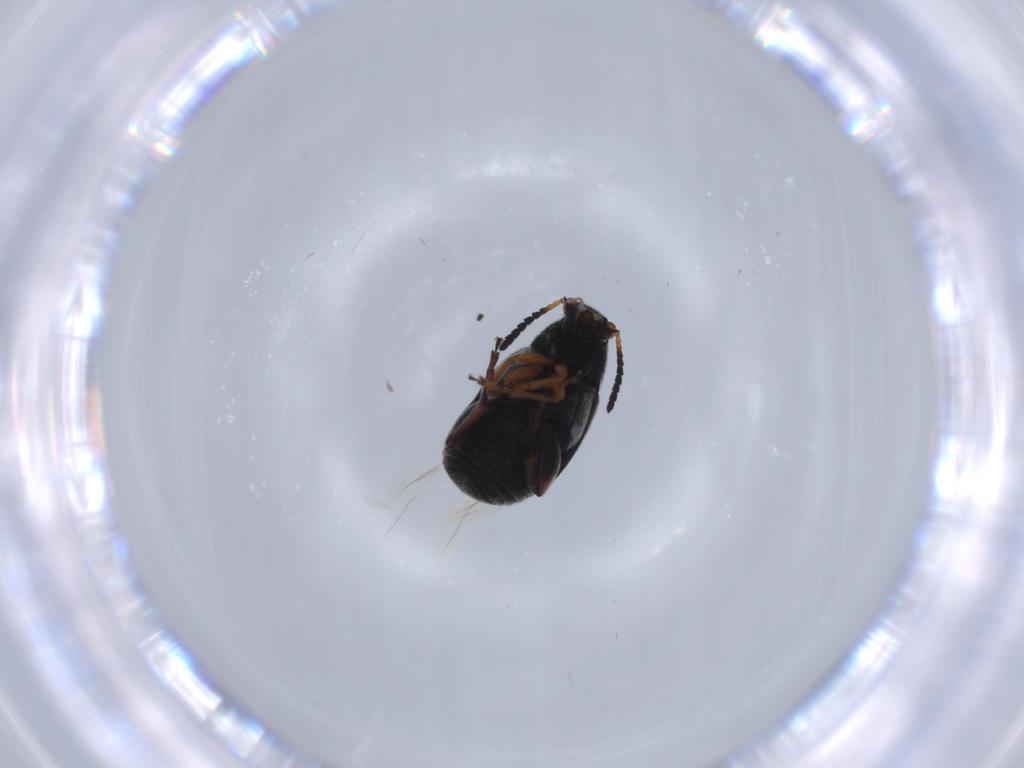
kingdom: Animalia
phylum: Arthropoda
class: Insecta
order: Coleoptera
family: Chrysomelidae
